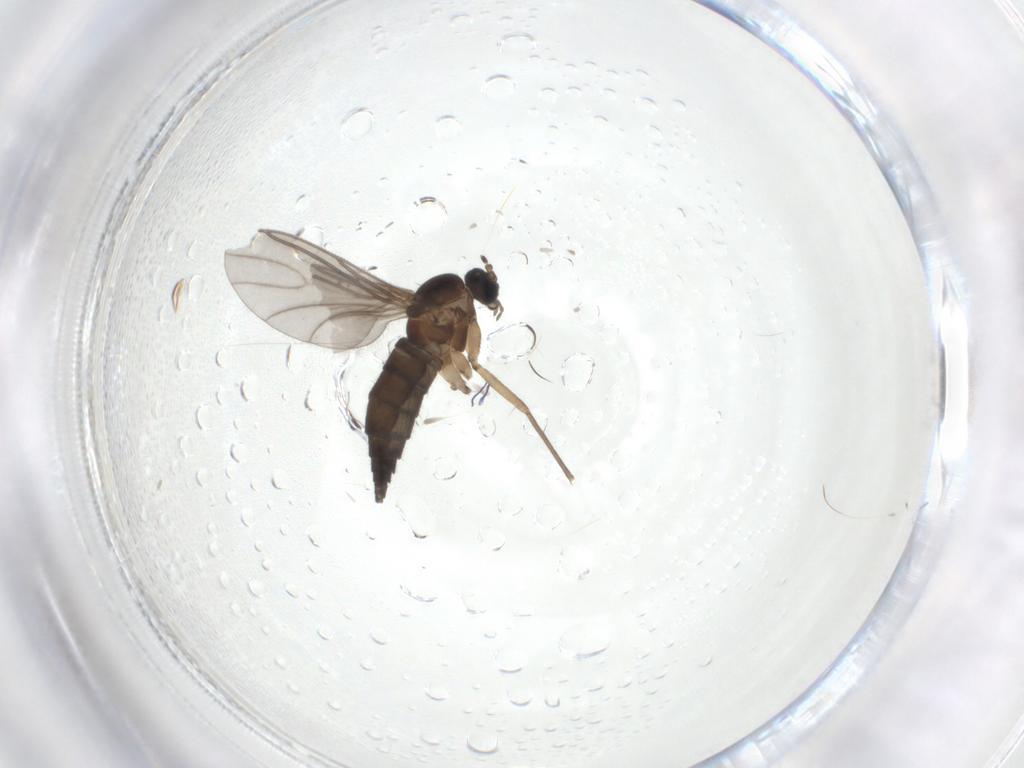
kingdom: Animalia
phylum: Arthropoda
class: Insecta
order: Diptera
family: Sciaridae
